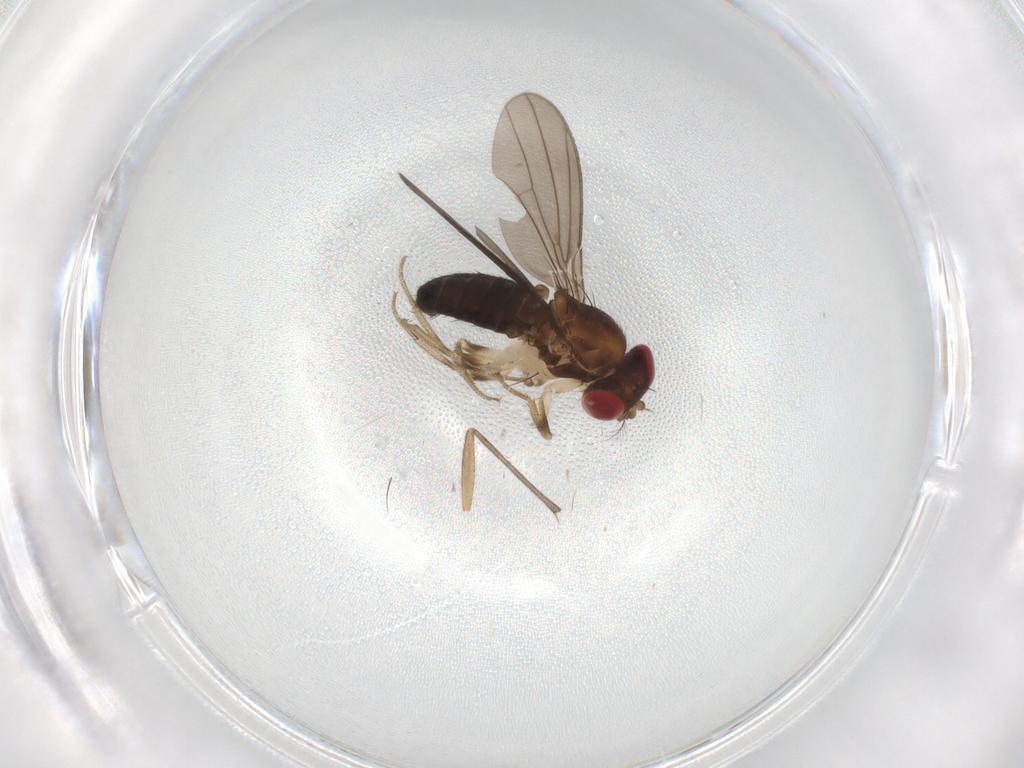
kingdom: Animalia
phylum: Arthropoda
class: Insecta
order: Diptera
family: Drosophilidae
